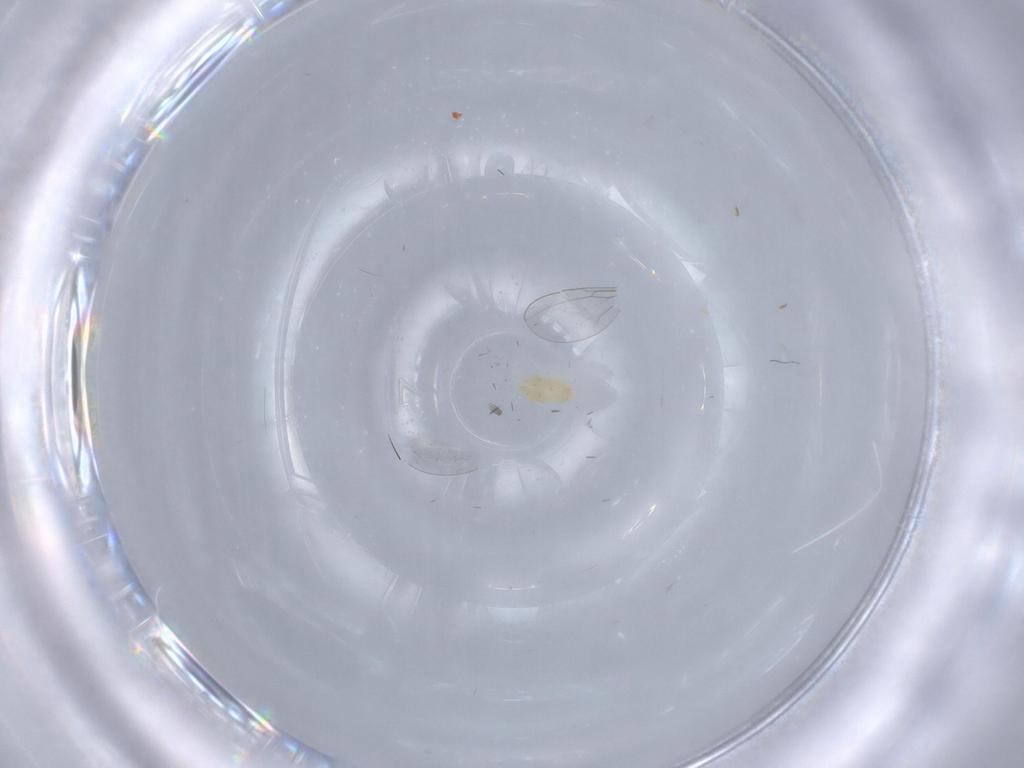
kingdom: Animalia
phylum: Arthropoda
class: Arachnida
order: Trombidiformes
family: Eupodidae
